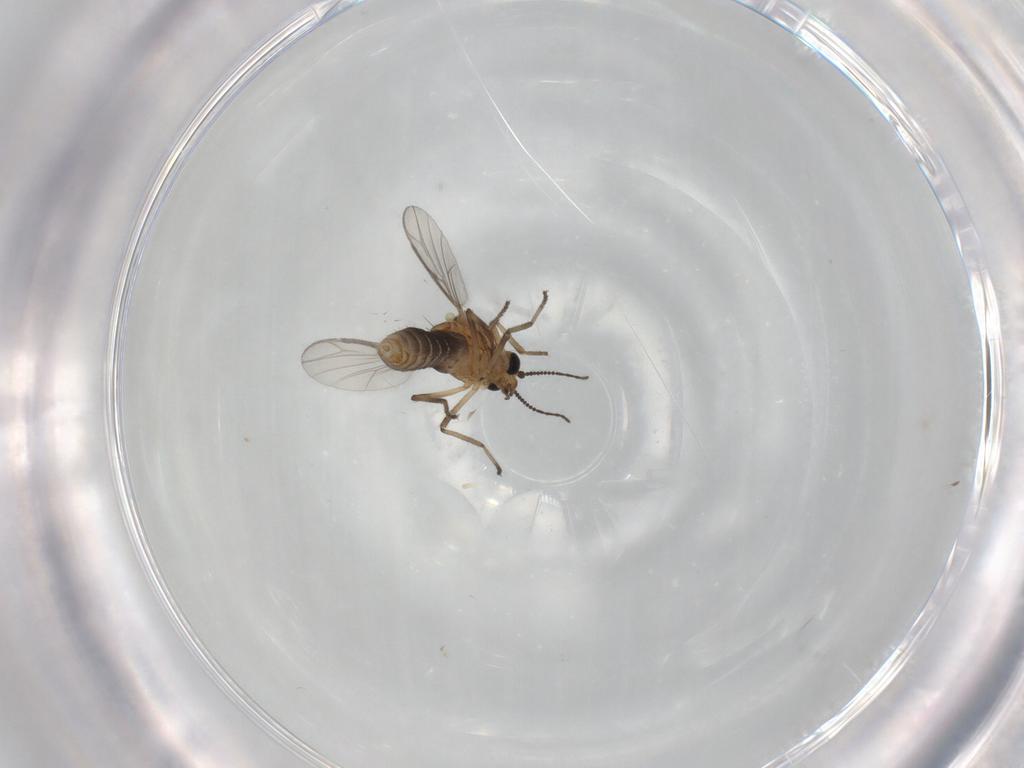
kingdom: Animalia
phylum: Arthropoda
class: Insecta
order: Diptera
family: Ceratopogonidae
